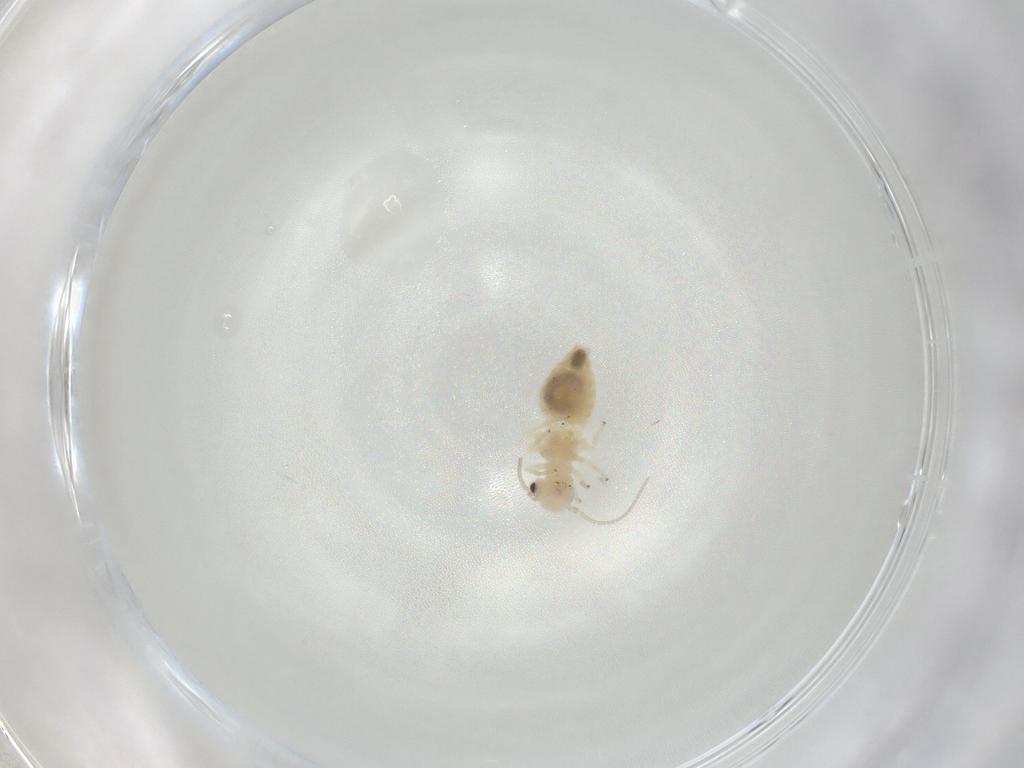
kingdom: Animalia
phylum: Arthropoda
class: Insecta
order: Psocodea
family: Caeciliusidae
